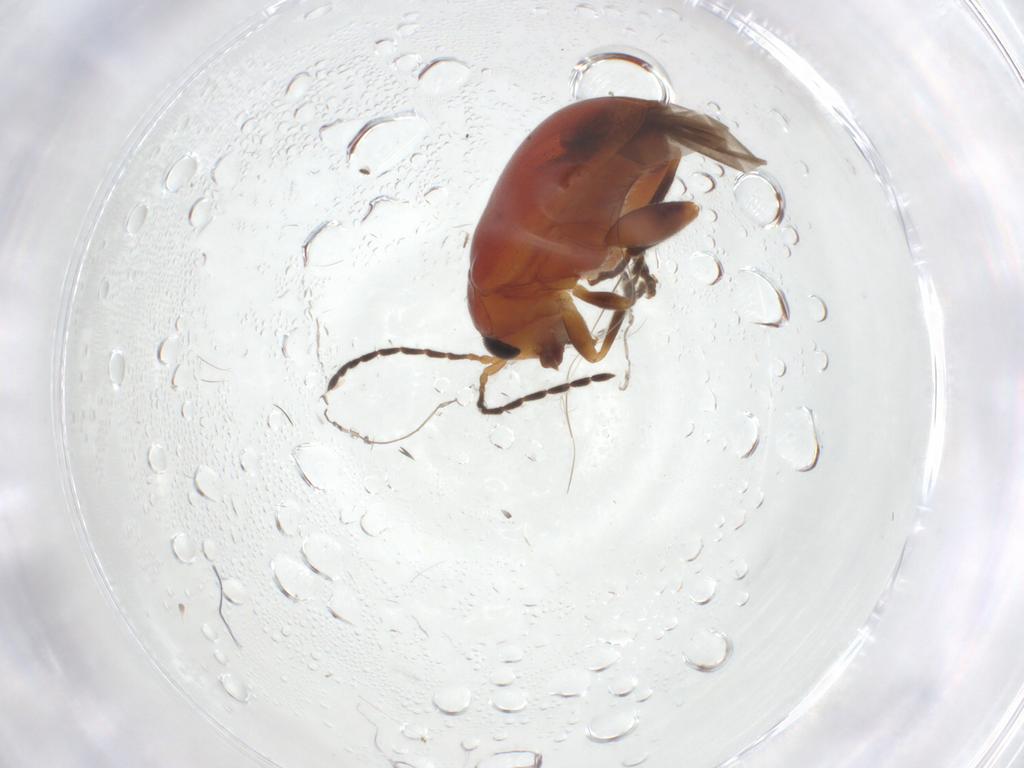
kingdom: Animalia
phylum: Arthropoda
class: Insecta
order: Coleoptera
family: Chrysomelidae
